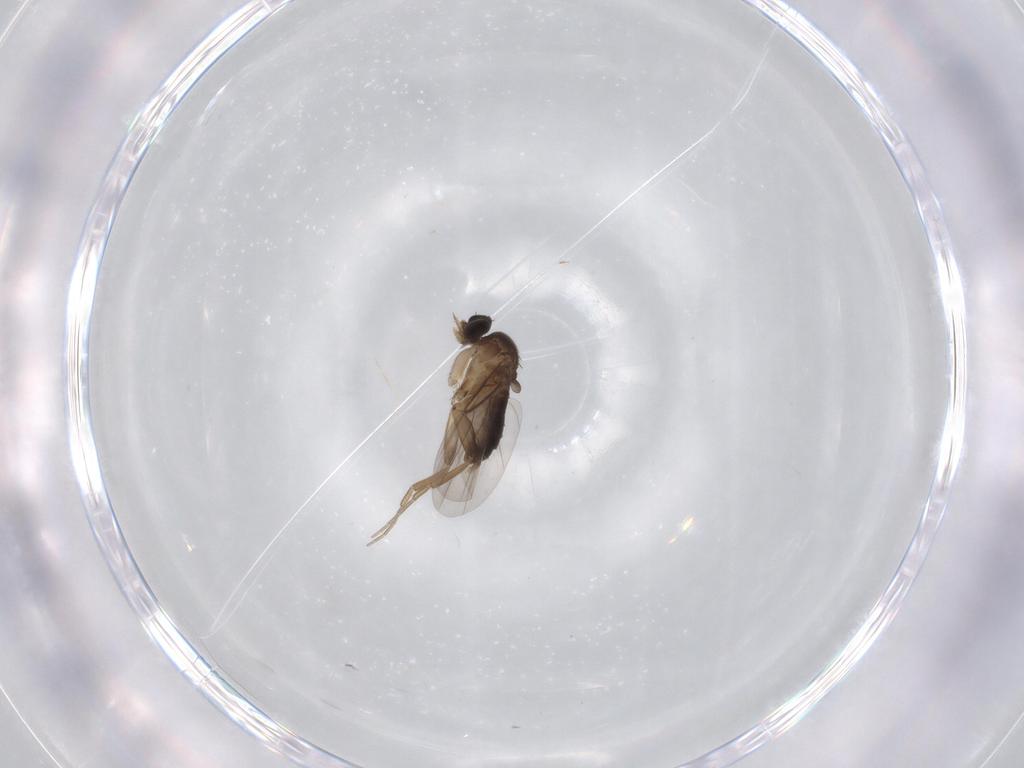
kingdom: Animalia
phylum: Arthropoda
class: Insecta
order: Diptera
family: Phoridae
